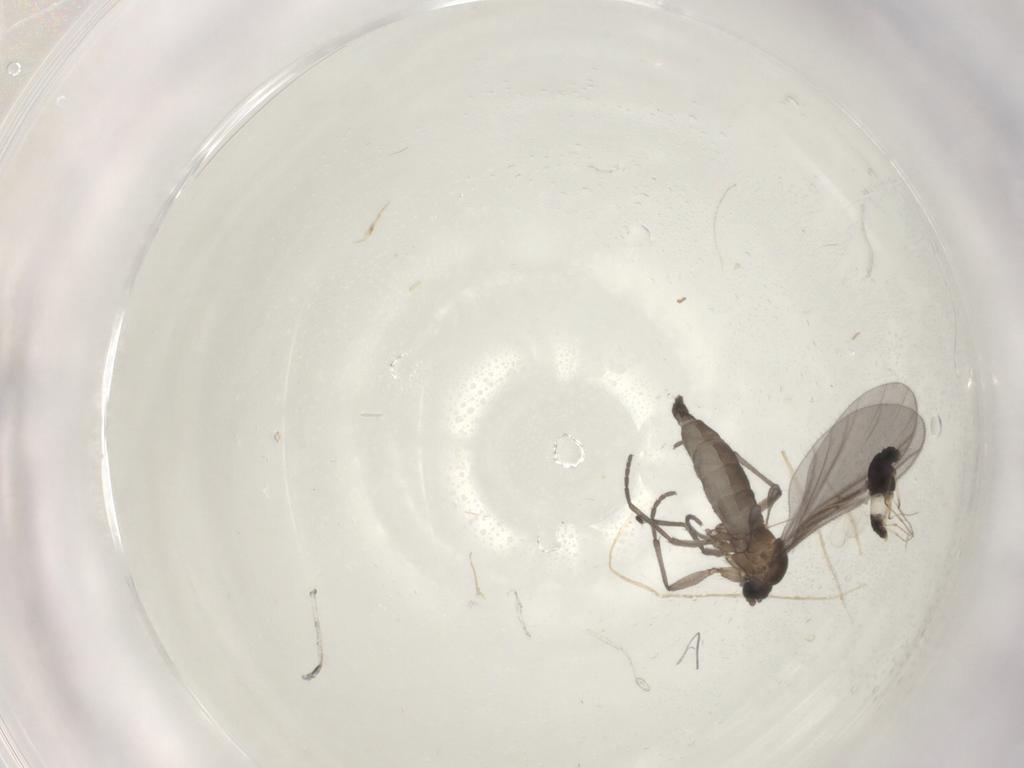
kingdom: Animalia
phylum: Arthropoda
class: Insecta
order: Diptera
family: Sciaridae
